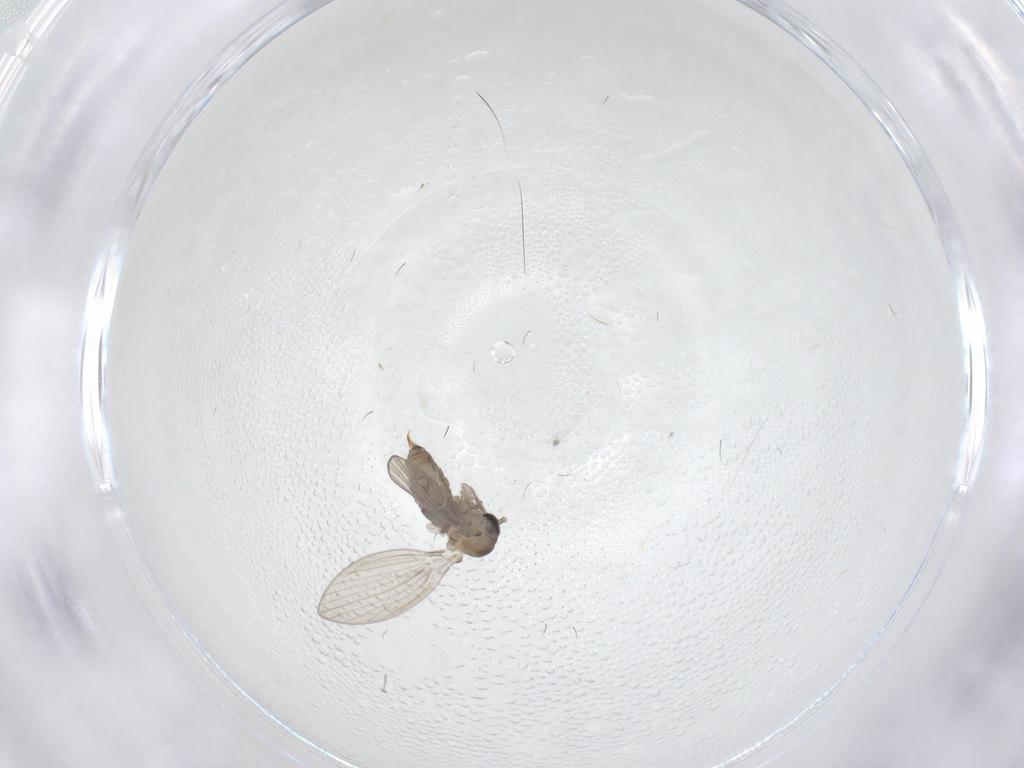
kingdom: Animalia
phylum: Arthropoda
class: Insecta
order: Diptera
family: Psychodidae
